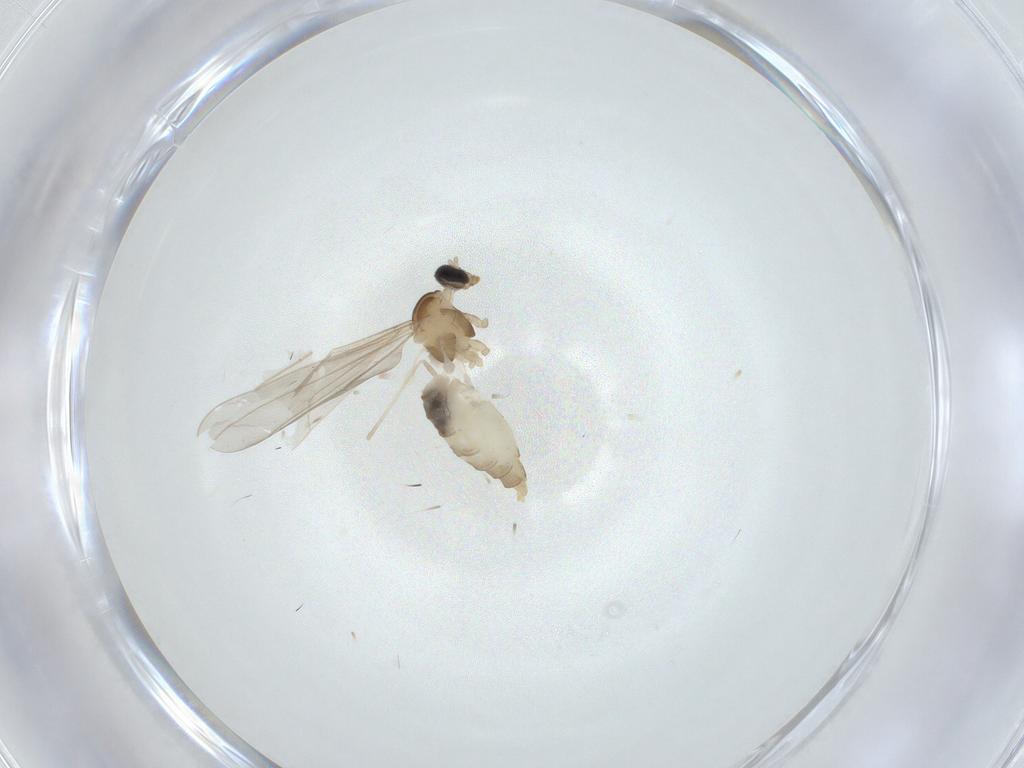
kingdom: Animalia
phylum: Arthropoda
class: Insecta
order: Diptera
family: Cecidomyiidae
